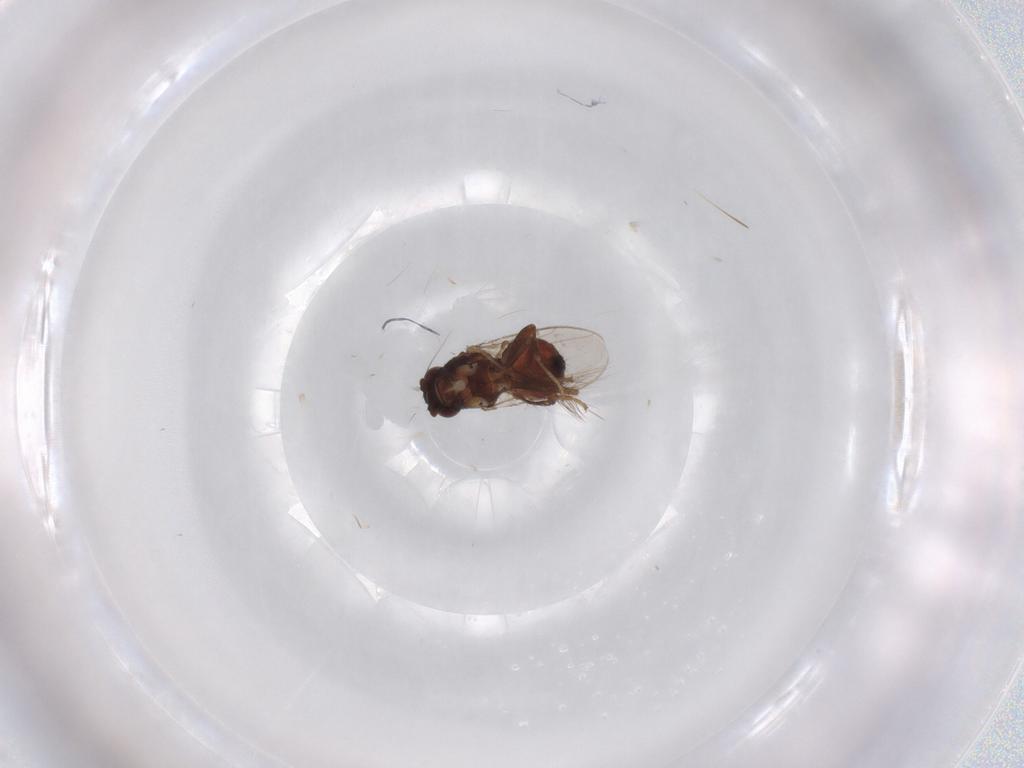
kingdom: Animalia
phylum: Arthropoda
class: Insecta
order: Diptera
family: Sphaeroceridae
